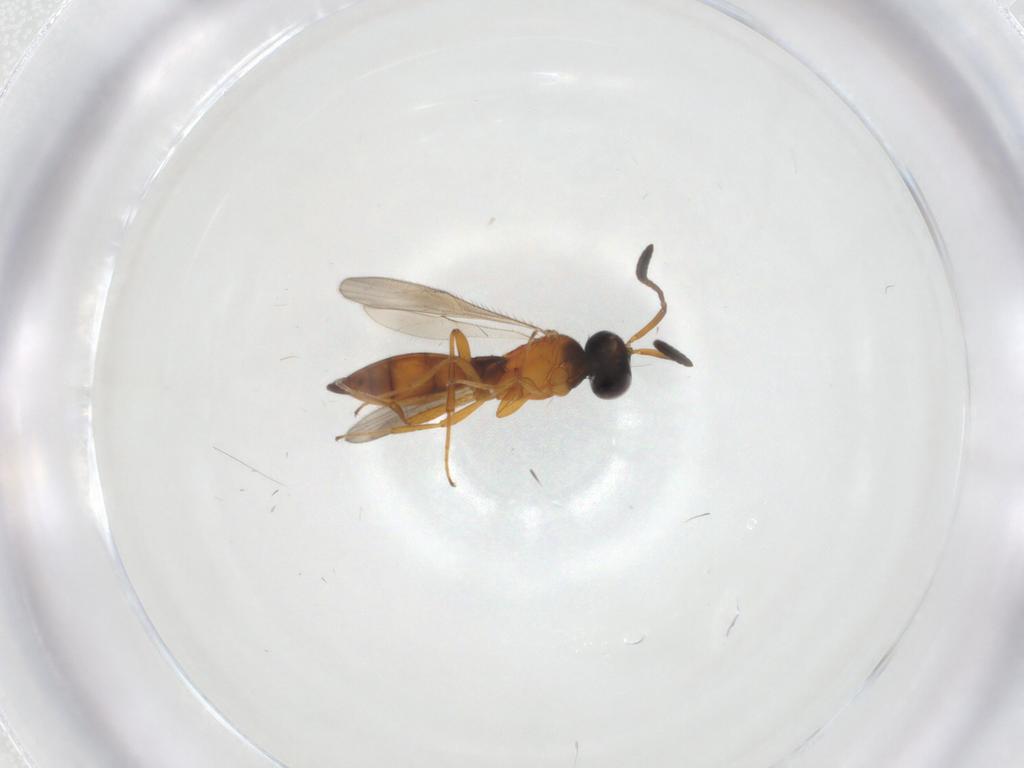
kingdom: Animalia
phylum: Arthropoda
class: Insecta
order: Hymenoptera
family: Scelionidae
